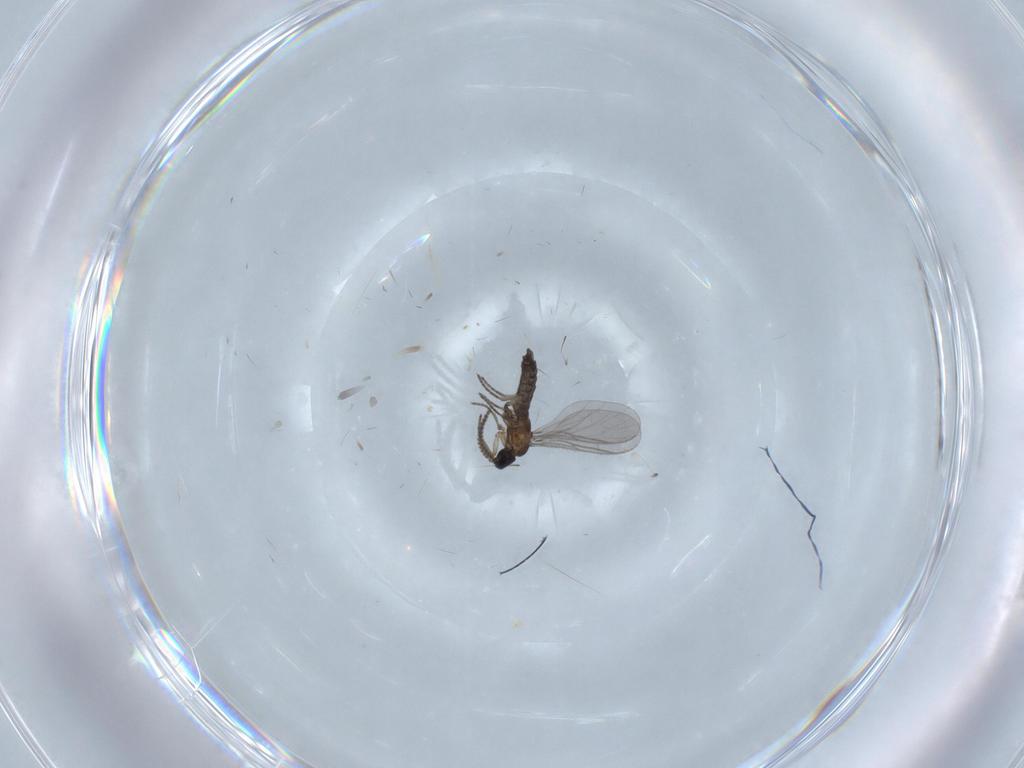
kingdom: Animalia
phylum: Arthropoda
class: Insecta
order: Diptera
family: Sciaridae
